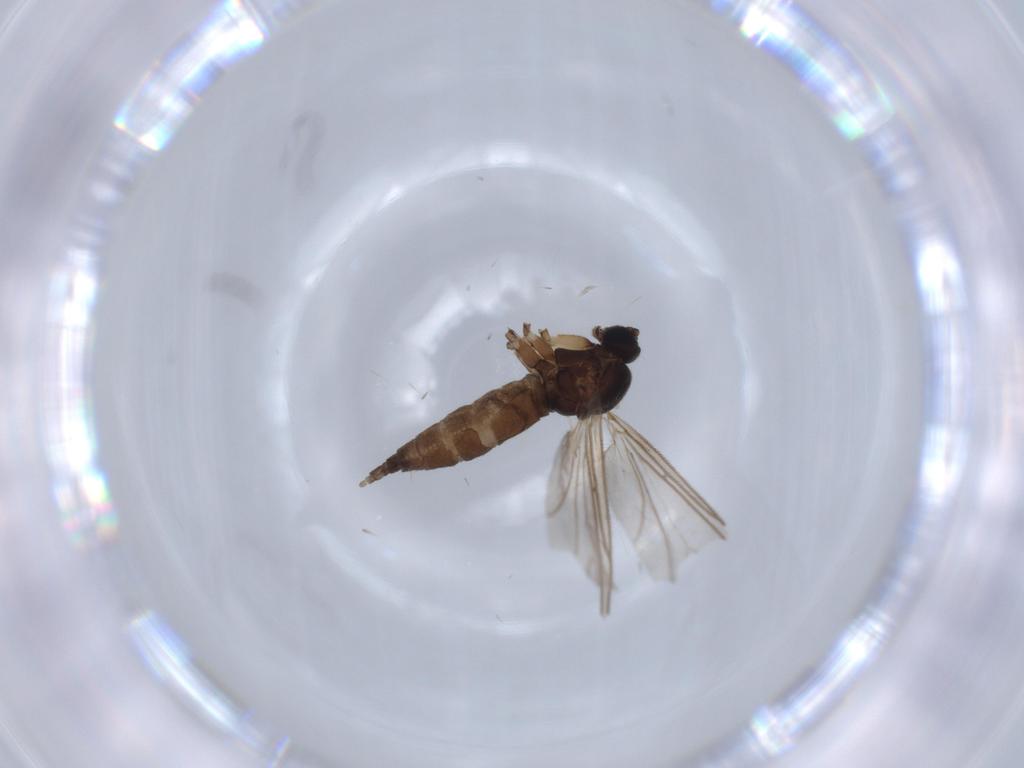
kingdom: Animalia
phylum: Arthropoda
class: Insecta
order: Diptera
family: Sciaridae
